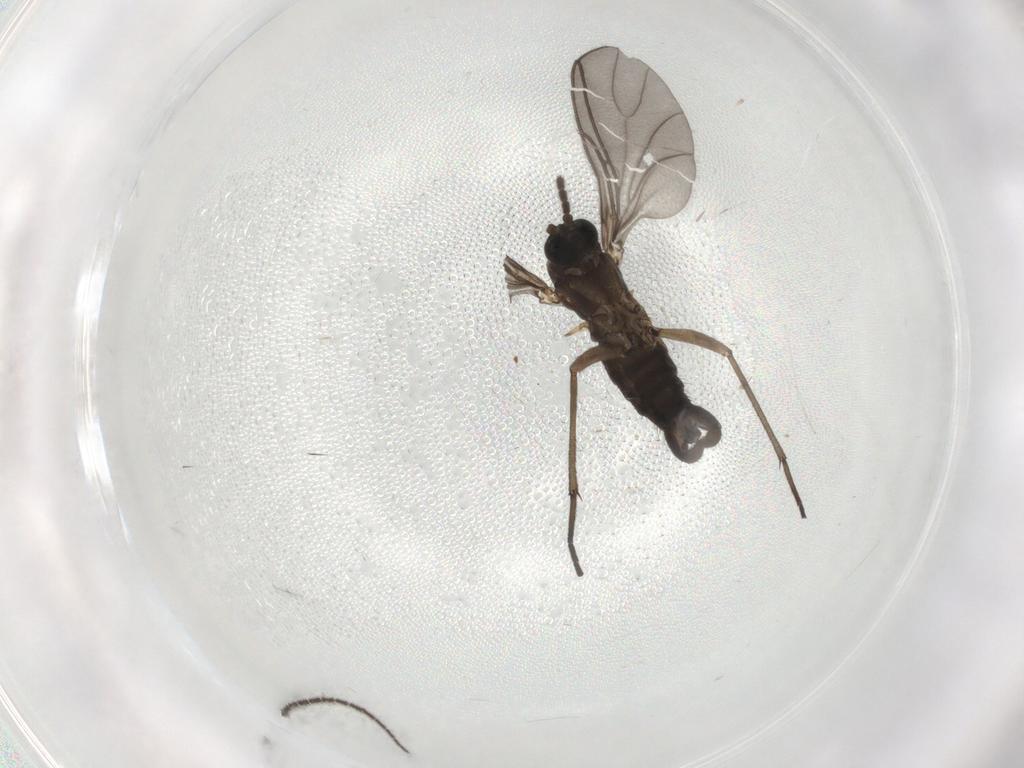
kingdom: Animalia
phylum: Arthropoda
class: Insecta
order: Diptera
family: Sciaridae
